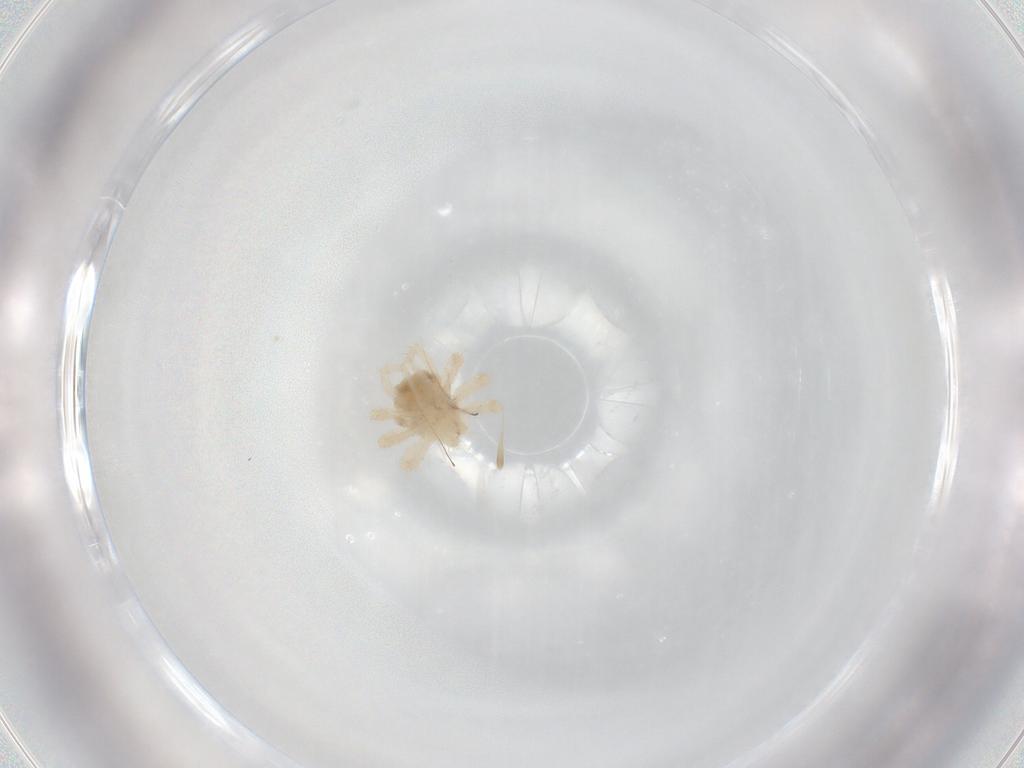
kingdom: Animalia
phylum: Arthropoda
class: Arachnida
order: Trombidiformes
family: Anystidae
